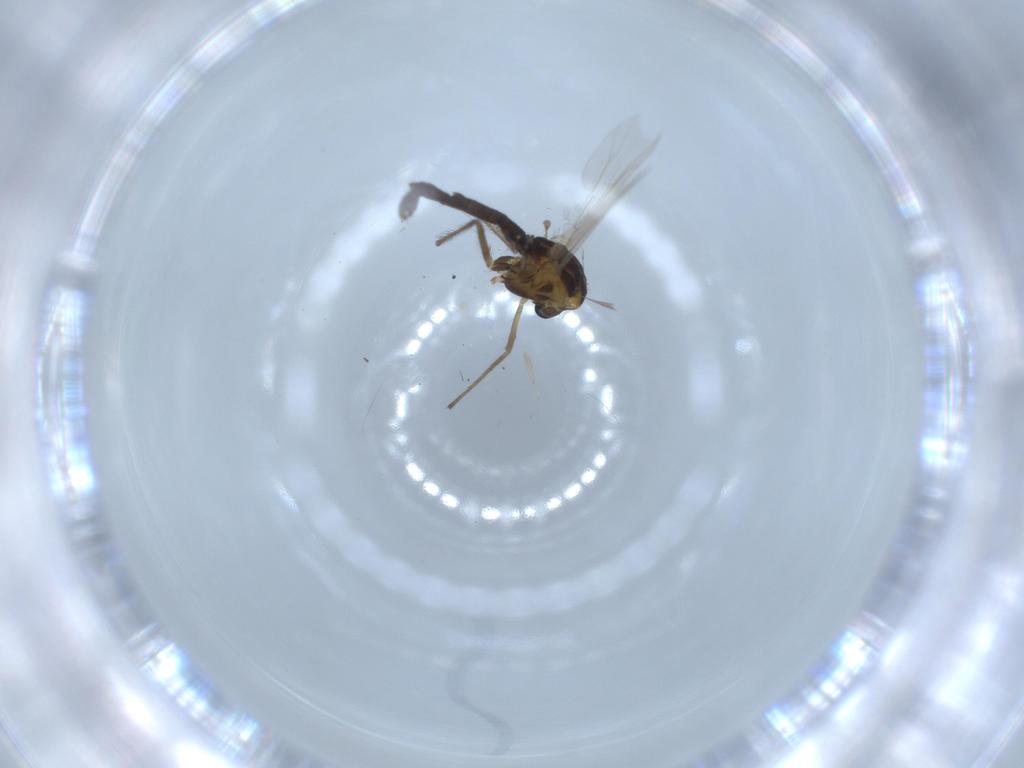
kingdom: Animalia
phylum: Arthropoda
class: Insecta
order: Diptera
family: Chironomidae
